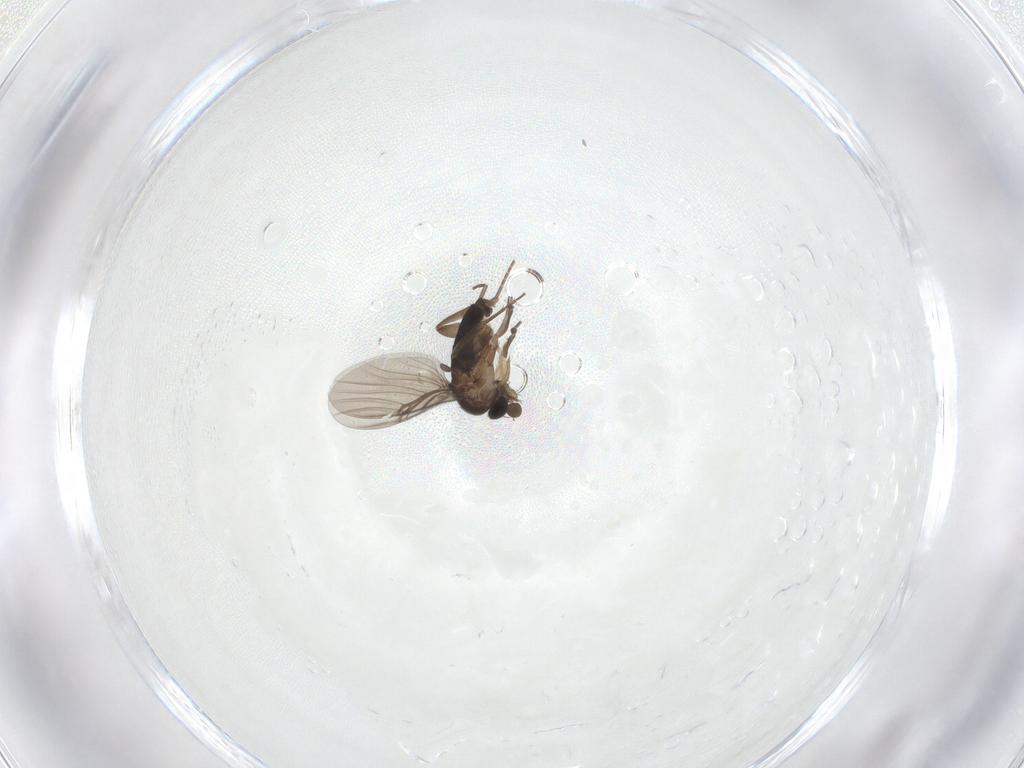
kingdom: Animalia
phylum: Arthropoda
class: Insecta
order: Diptera
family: Phoridae
